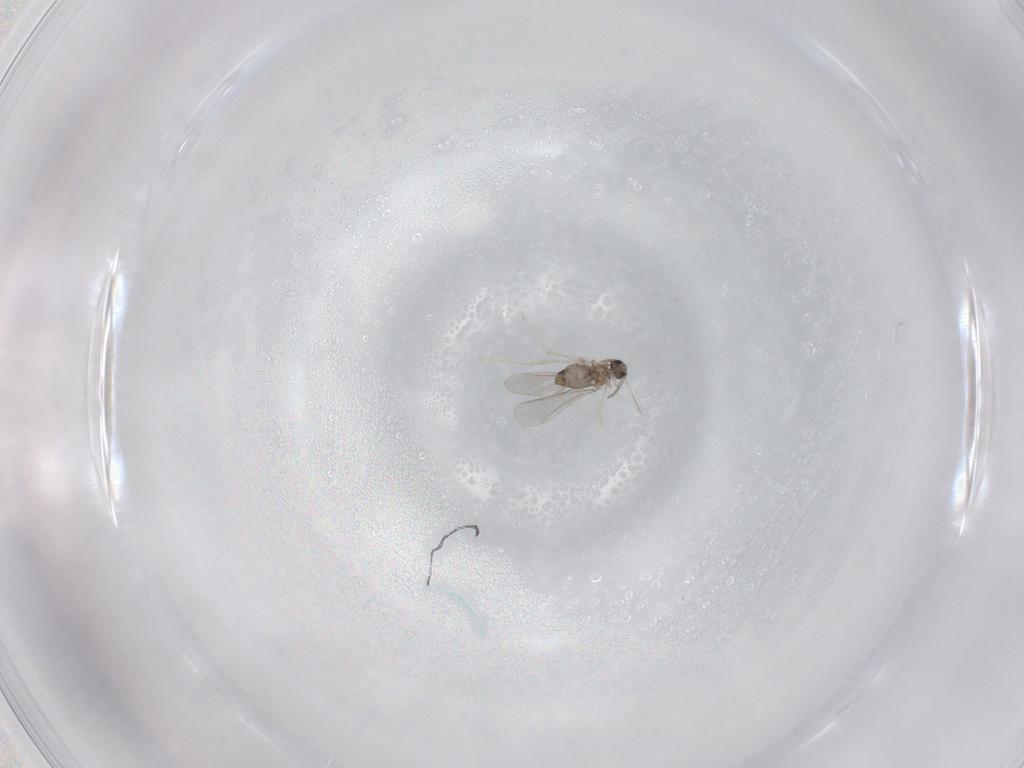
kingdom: Animalia
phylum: Arthropoda
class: Insecta
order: Diptera
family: Chironomidae
